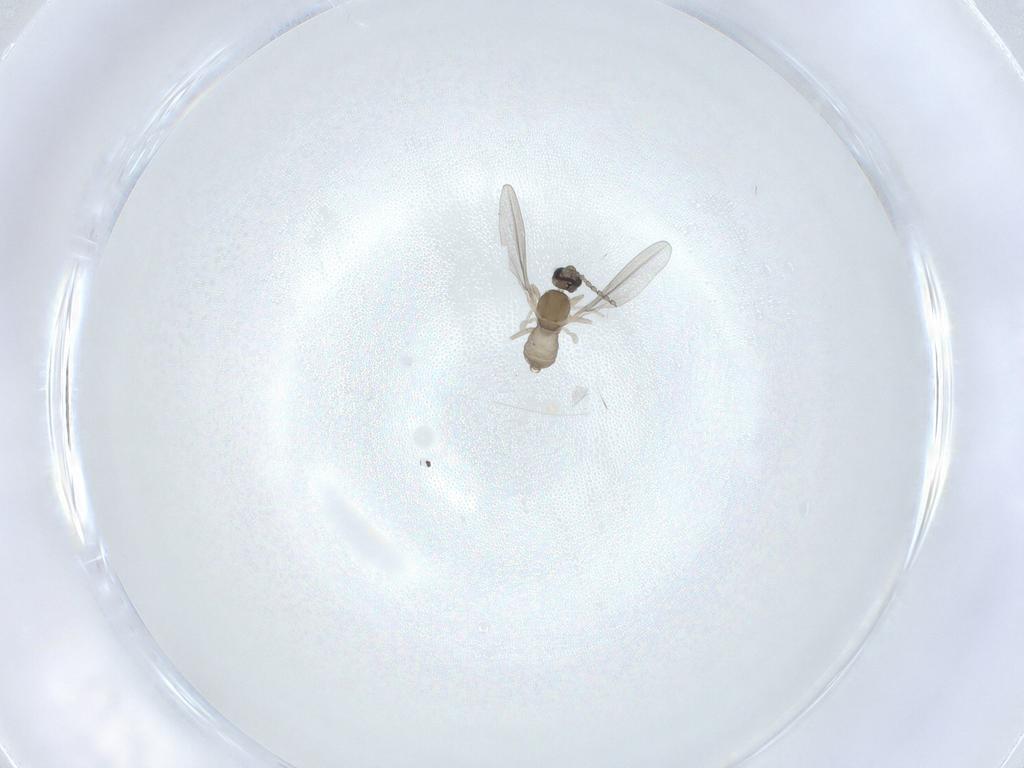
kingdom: Animalia
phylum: Arthropoda
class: Insecta
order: Diptera
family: Cecidomyiidae
